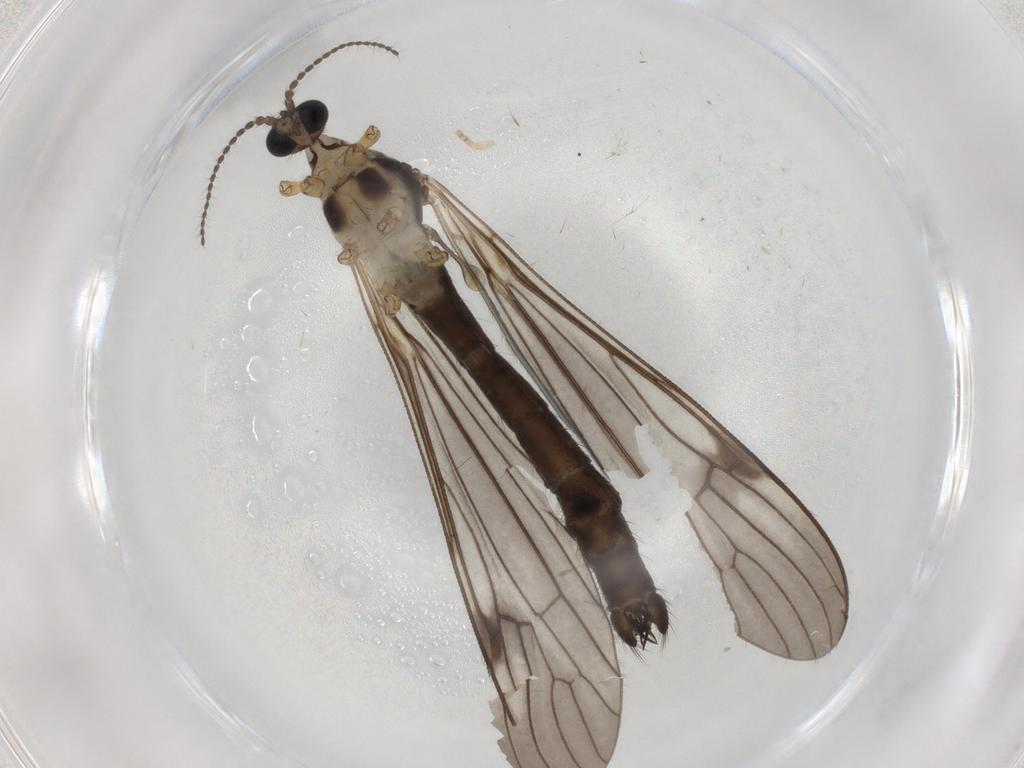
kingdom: Animalia
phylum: Arthropoda
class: Insecta
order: Diptera
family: Limoniidae
